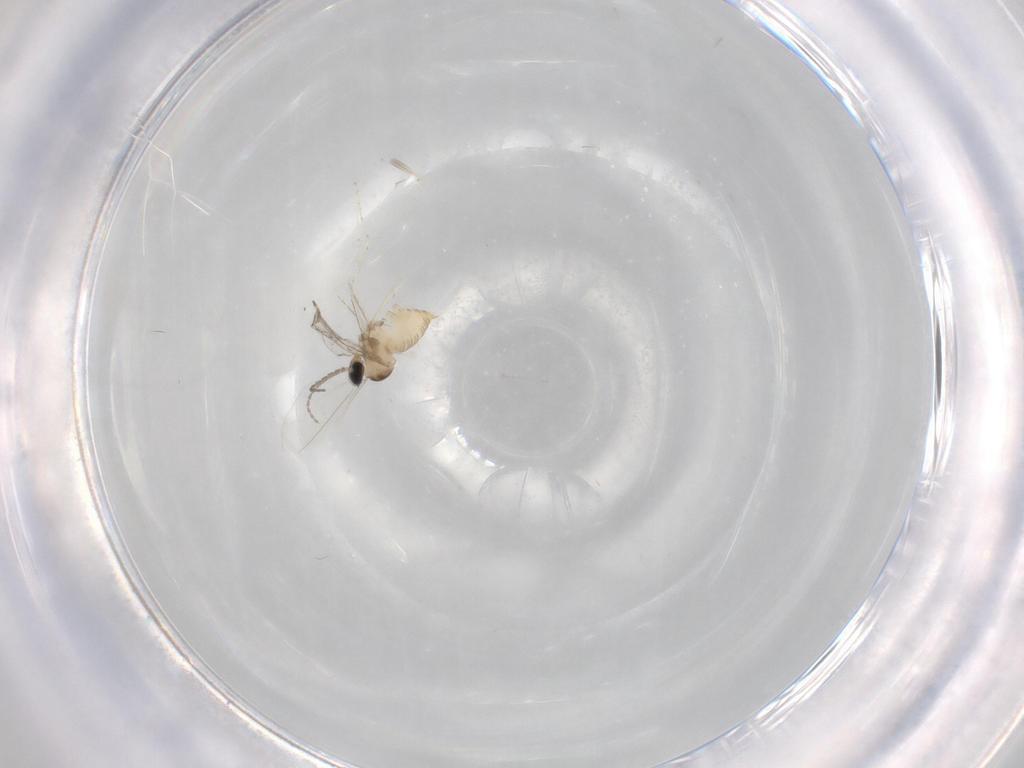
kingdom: Animalia
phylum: Arthropoda
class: Insecta
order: Diptera
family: Cecidomyiidae
